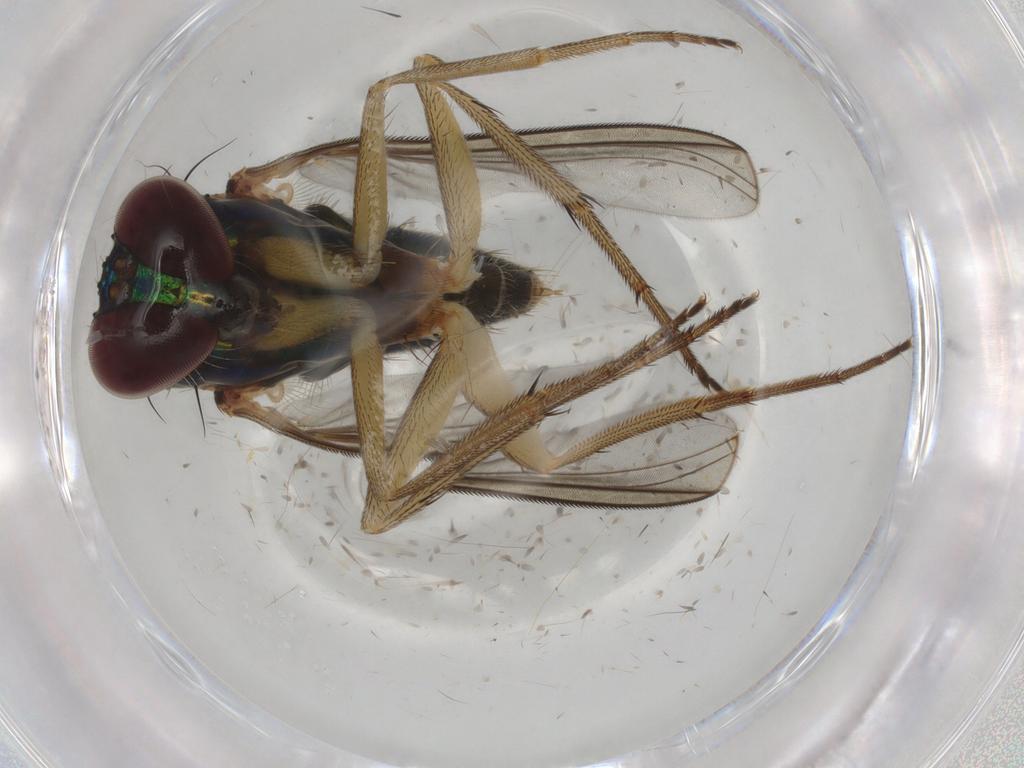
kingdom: Animalia
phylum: Arthropoda
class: Insecta
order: Diptera
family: Dolichopodidae
